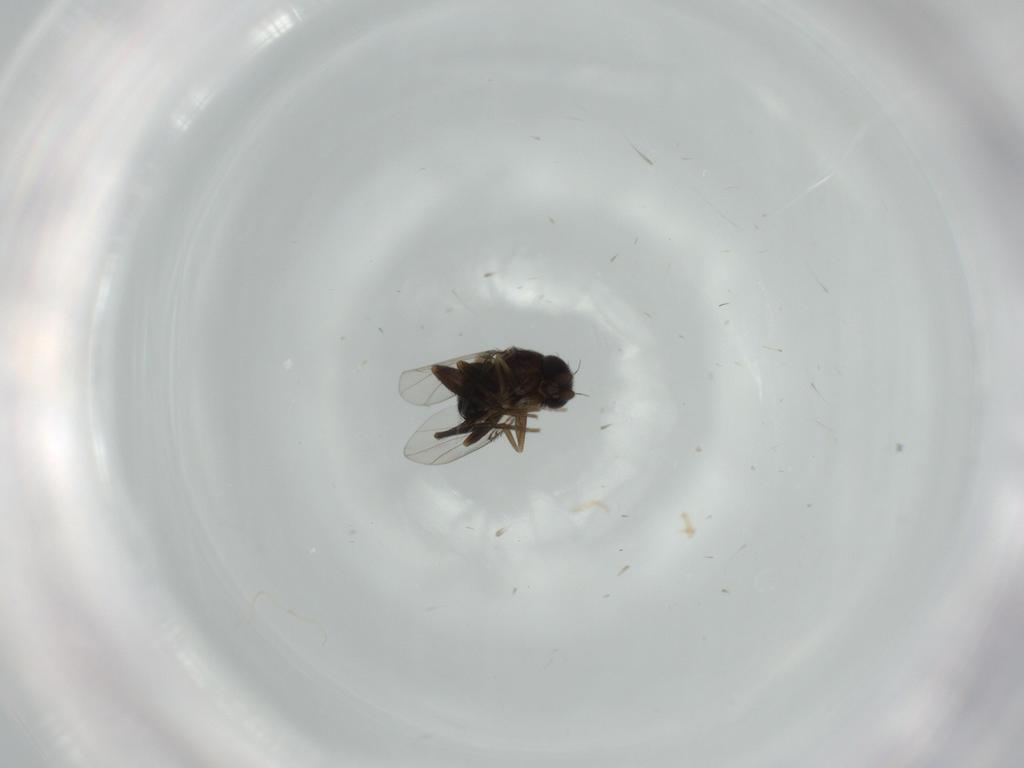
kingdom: Animalia
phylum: Arthropoda
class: Insecta
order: Diptera
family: Phoridae
